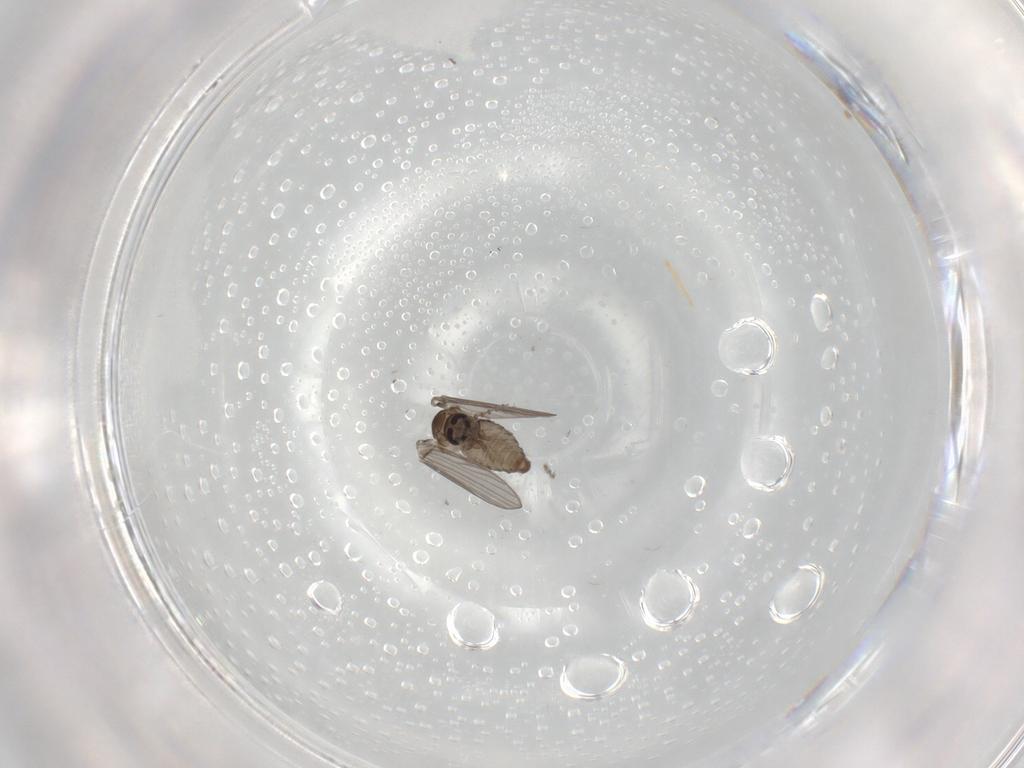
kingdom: Animalia
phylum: Arthropoda
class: Insecta
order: Diptera
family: Psychodidae
